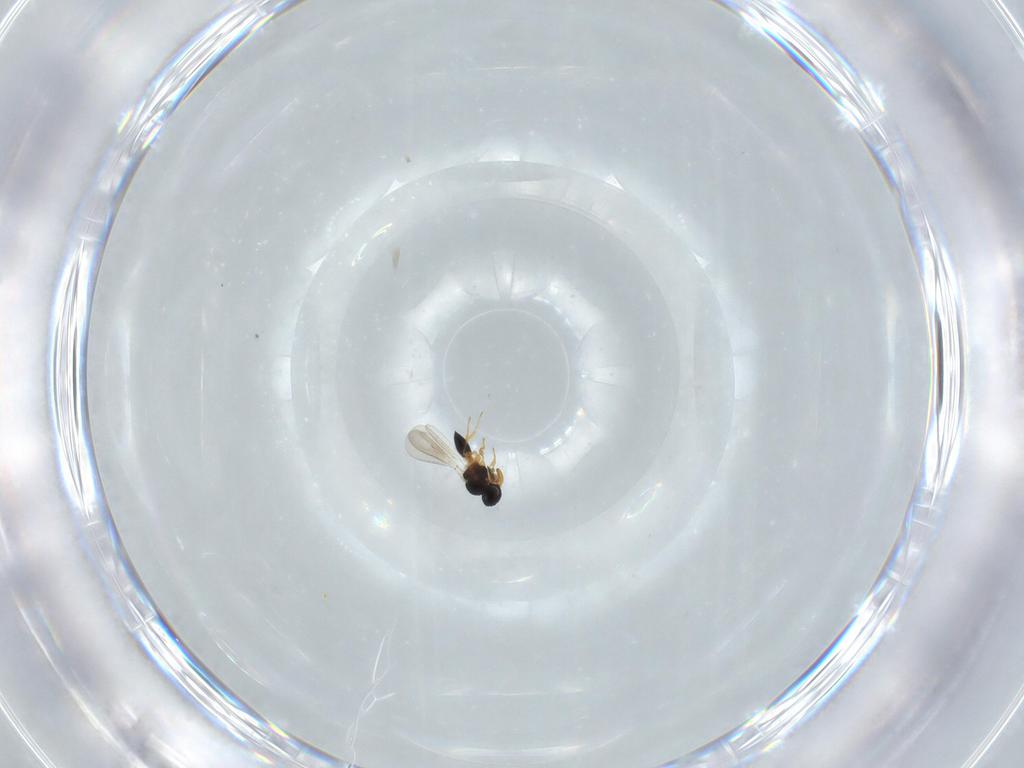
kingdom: Animalia
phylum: Arthropoda
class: Insecta
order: Hymenoptera
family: Platygastridae
